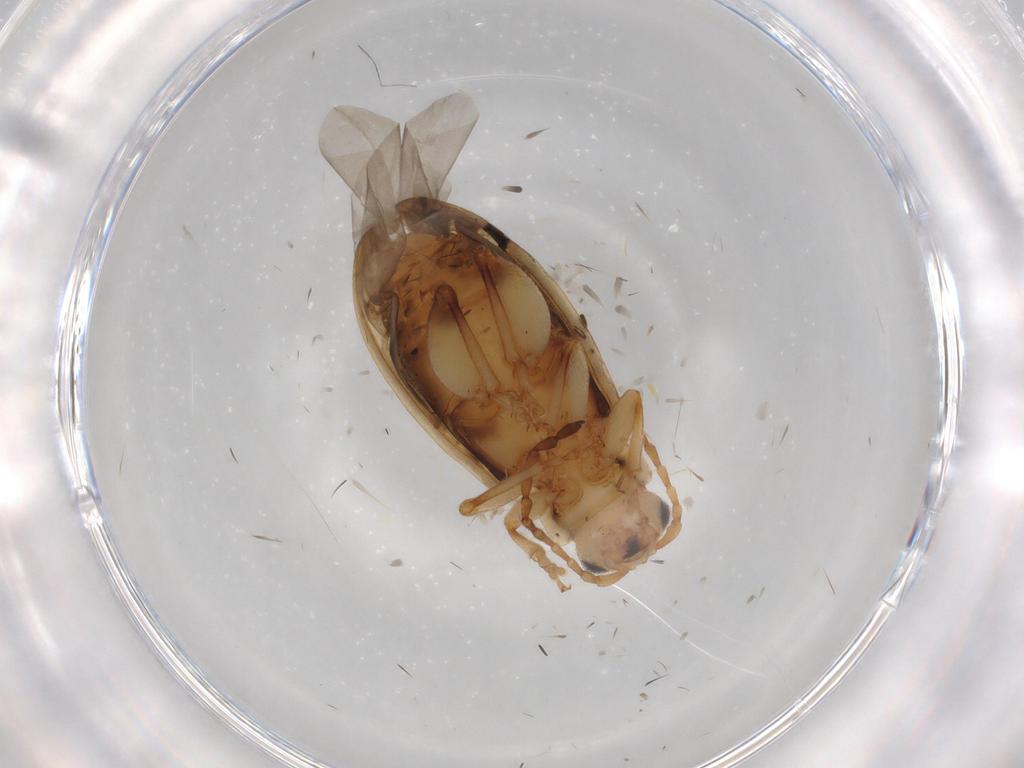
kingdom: Animalia
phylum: Arthropoda
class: Insecta
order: Coleoptera
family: Chrysomelidae
